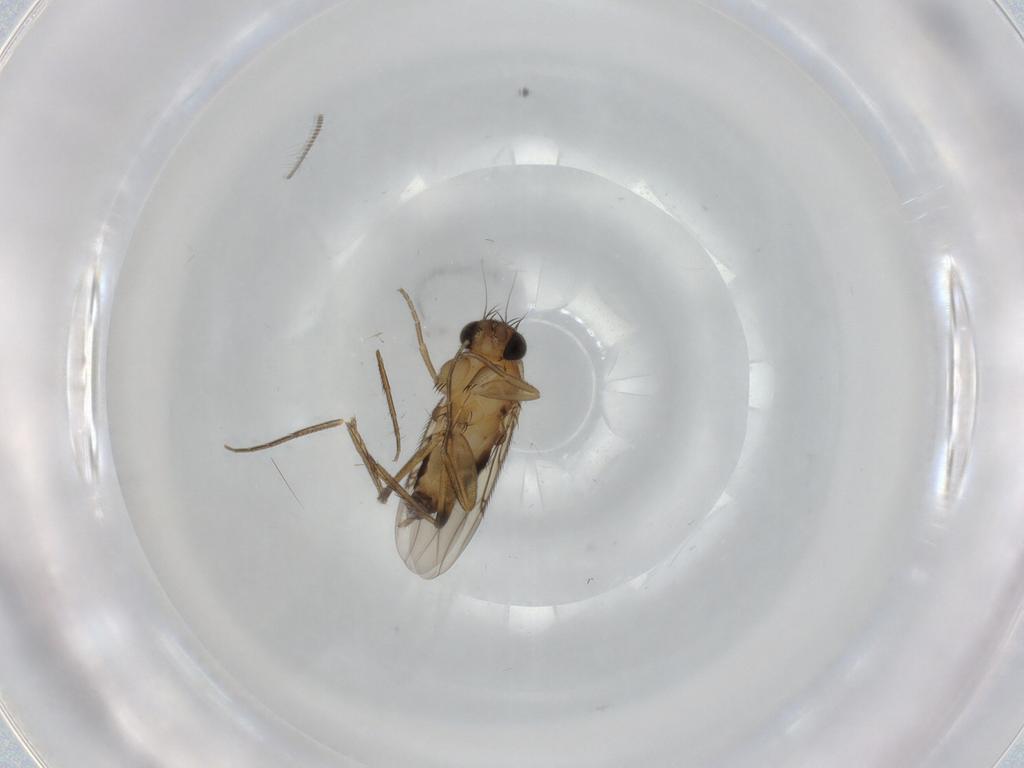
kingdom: Animalia
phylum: Arthropoda
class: Insecta
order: Diptera
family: Phoridae
